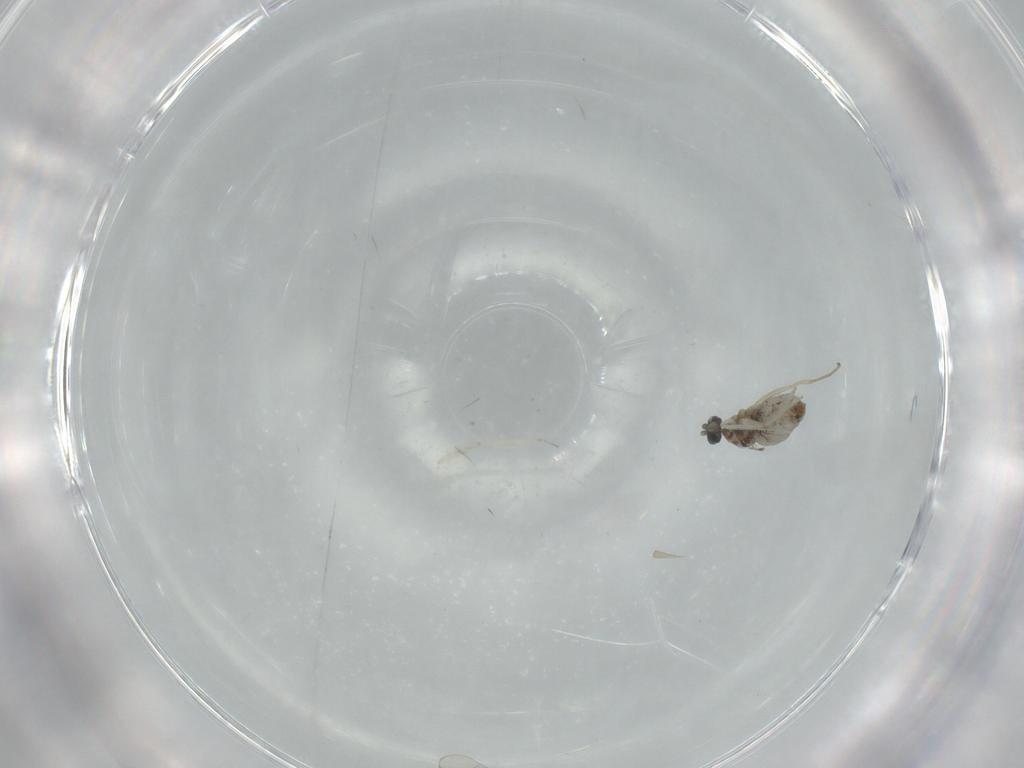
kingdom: Animalia
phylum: Arthropoda
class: Insecta
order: Diptera
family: Cecidomyiidae
